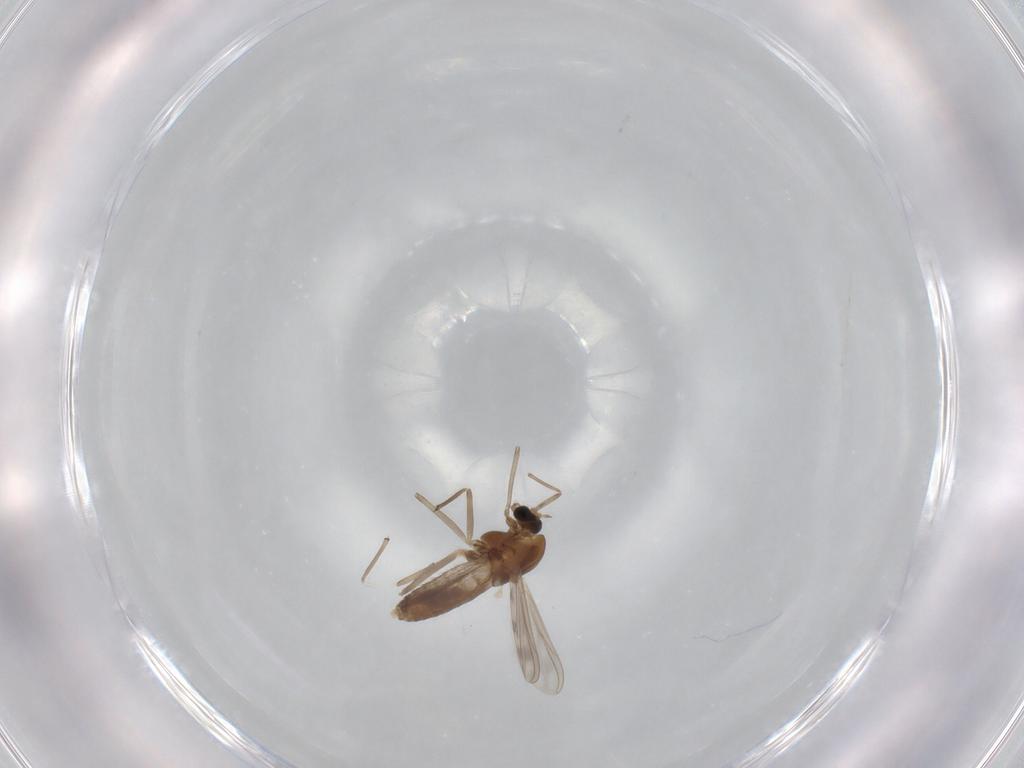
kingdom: Animalia
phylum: Arthropoda
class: Insecta
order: Diptera
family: Chironomidae
